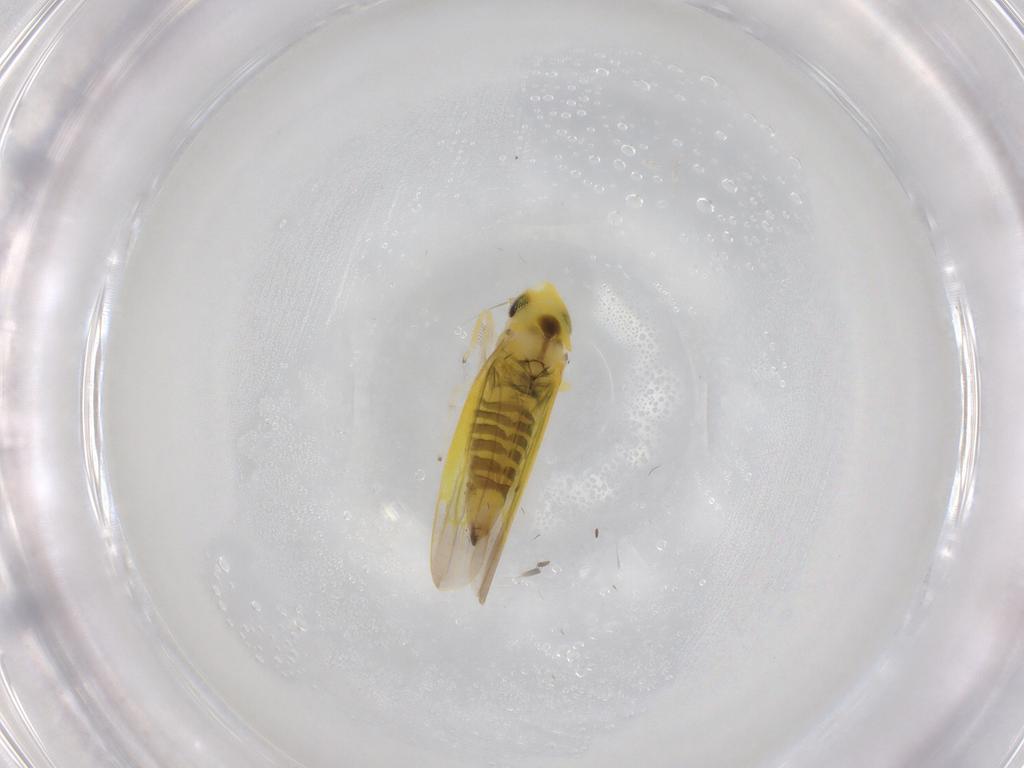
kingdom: Animalia
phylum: Arthropoda
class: Insecta
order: Hemiptera
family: Cicadellidae
